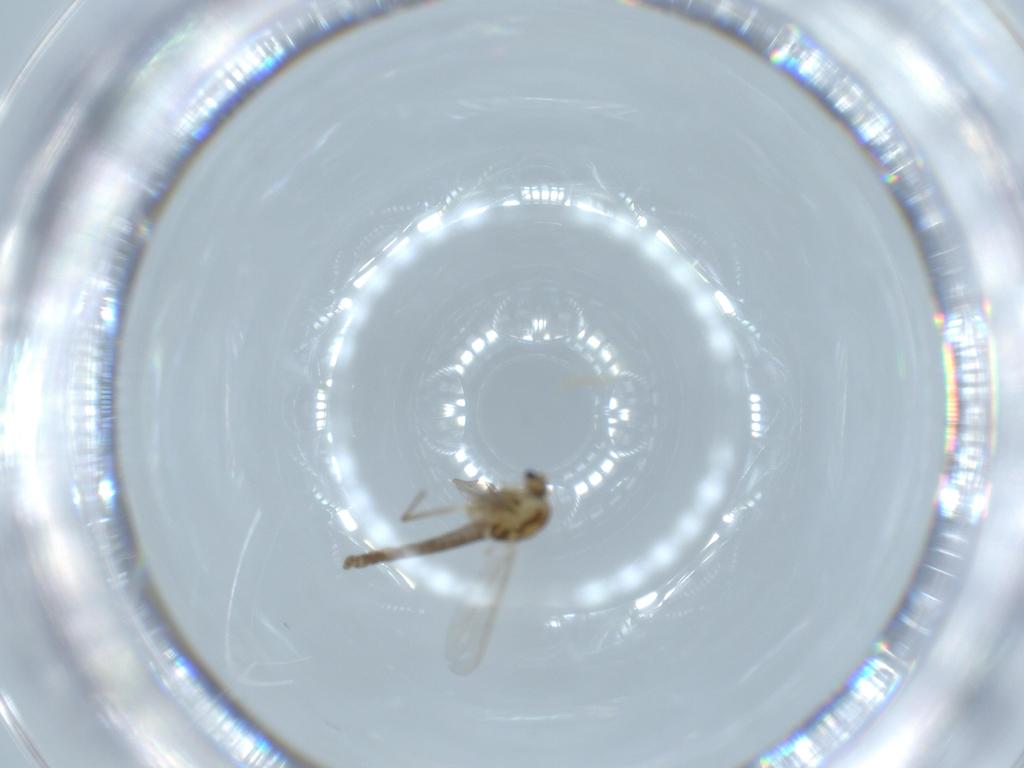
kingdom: Animalia
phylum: Arthropoda
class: Insecta
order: Diptera
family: Chironomidae
